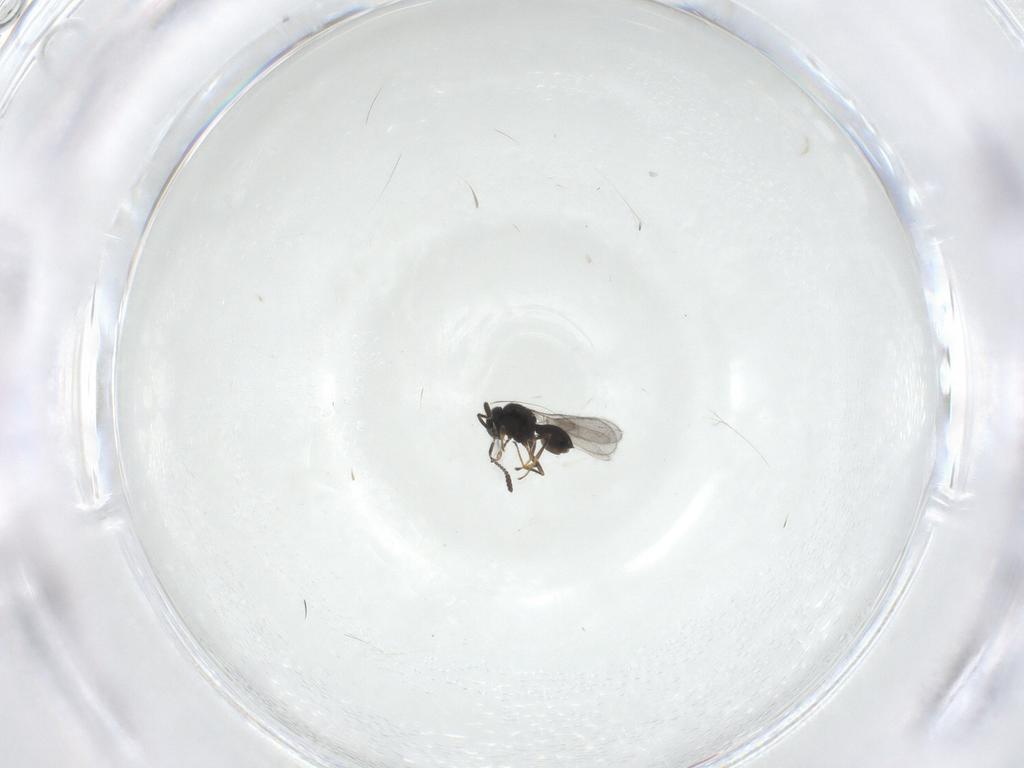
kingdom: Animalia
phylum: Arthropoda
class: Insecta
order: Hymenoptera
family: Scelionidae
